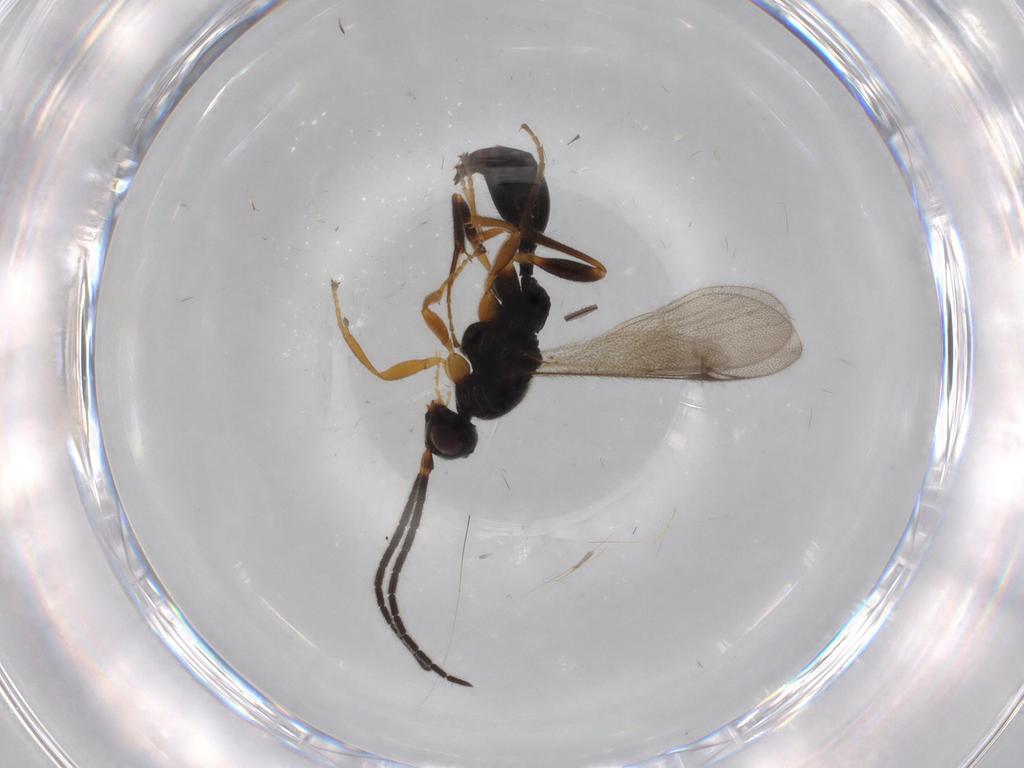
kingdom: Animalia
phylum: Arthropoda
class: Insecta
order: Hymenoptera
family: Proctotrupidae
